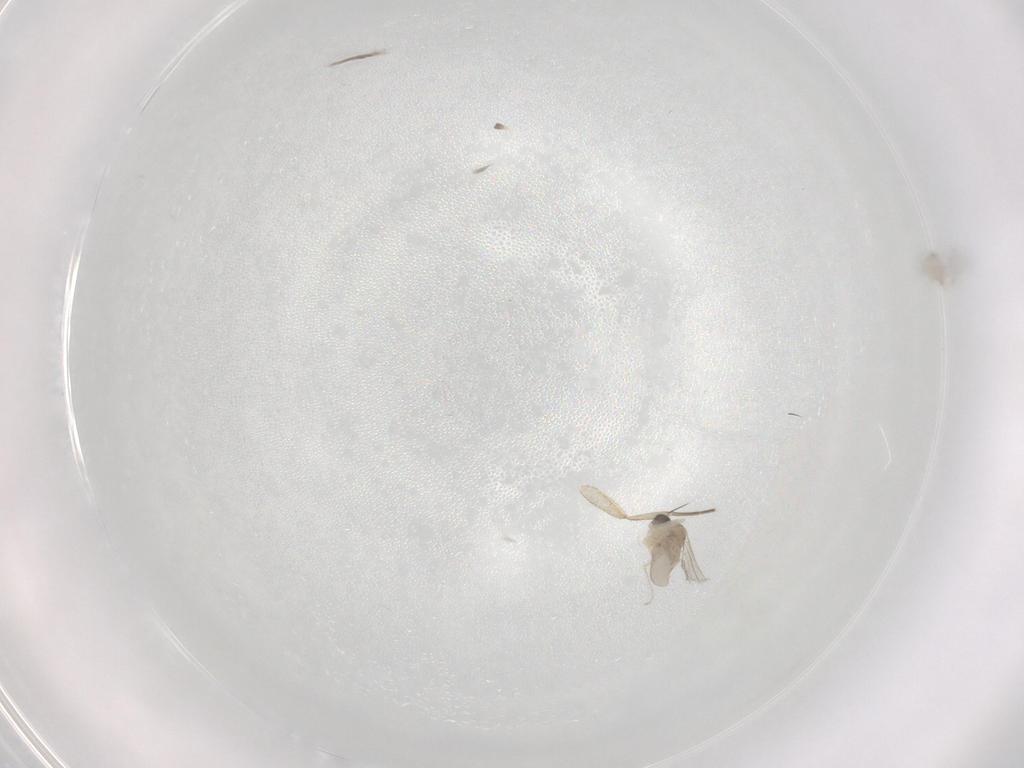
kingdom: Animalia
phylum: Arthropoda
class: Insecta
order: Diptera
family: Cecidomyiidae
